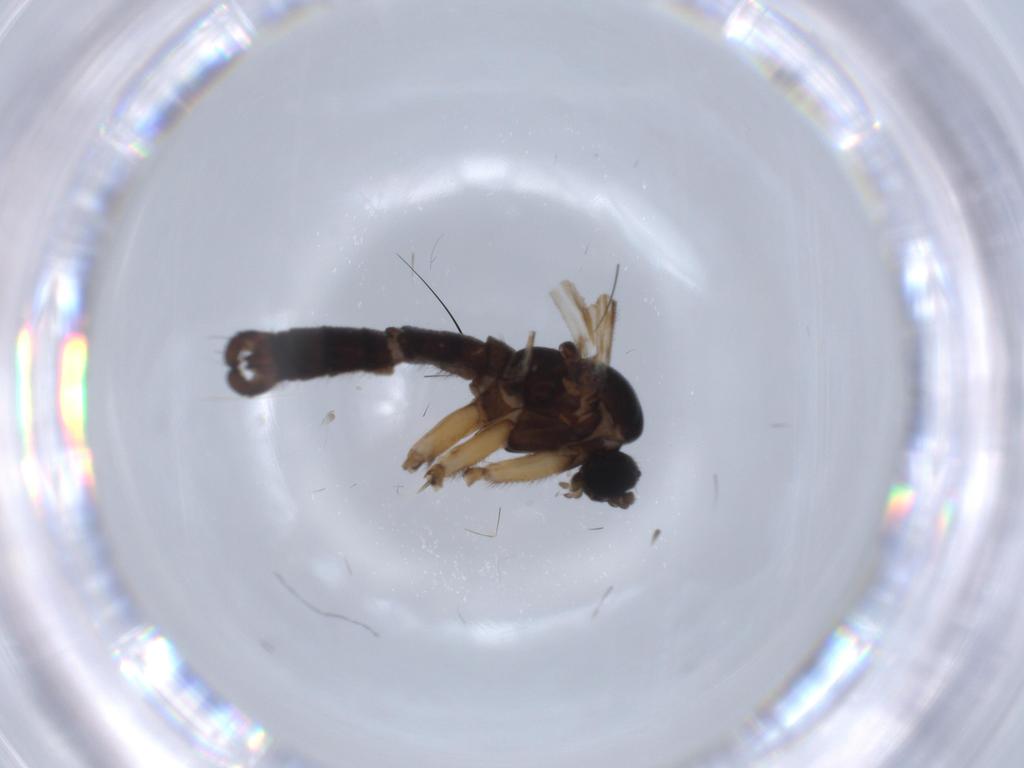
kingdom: Animalia
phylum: Arthropoda
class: Insecta
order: Diptera
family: Sciaridae
